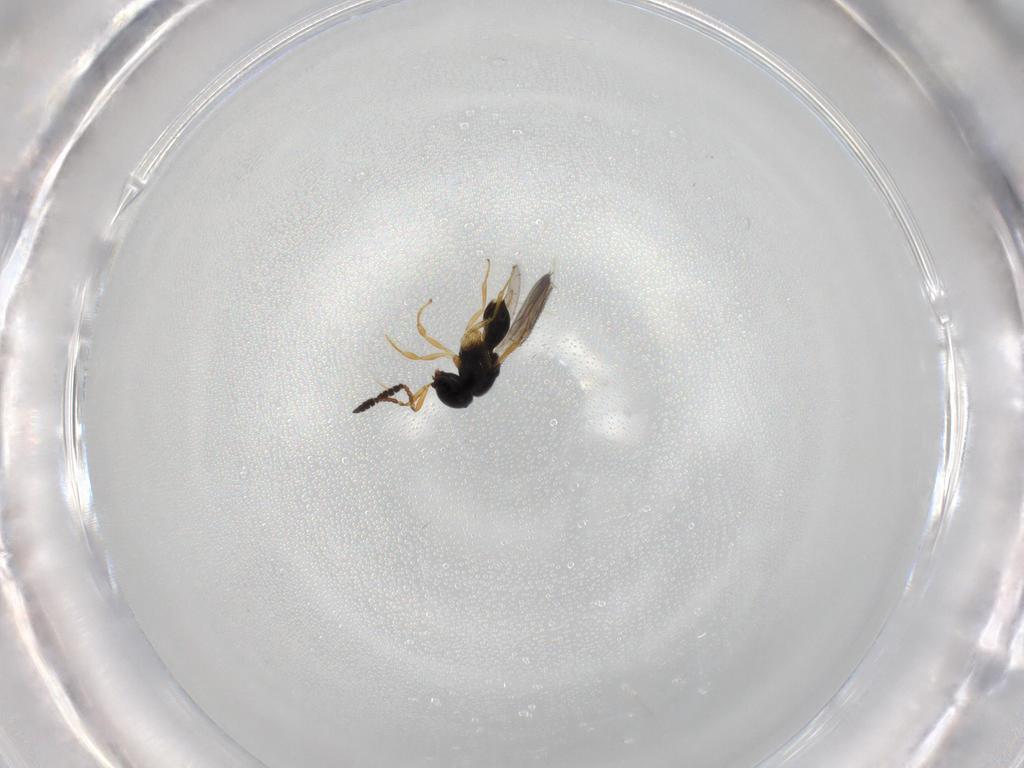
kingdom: Animalia
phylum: Arthropoda
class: Insecta
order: Hymenoptera
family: Scelionidae
